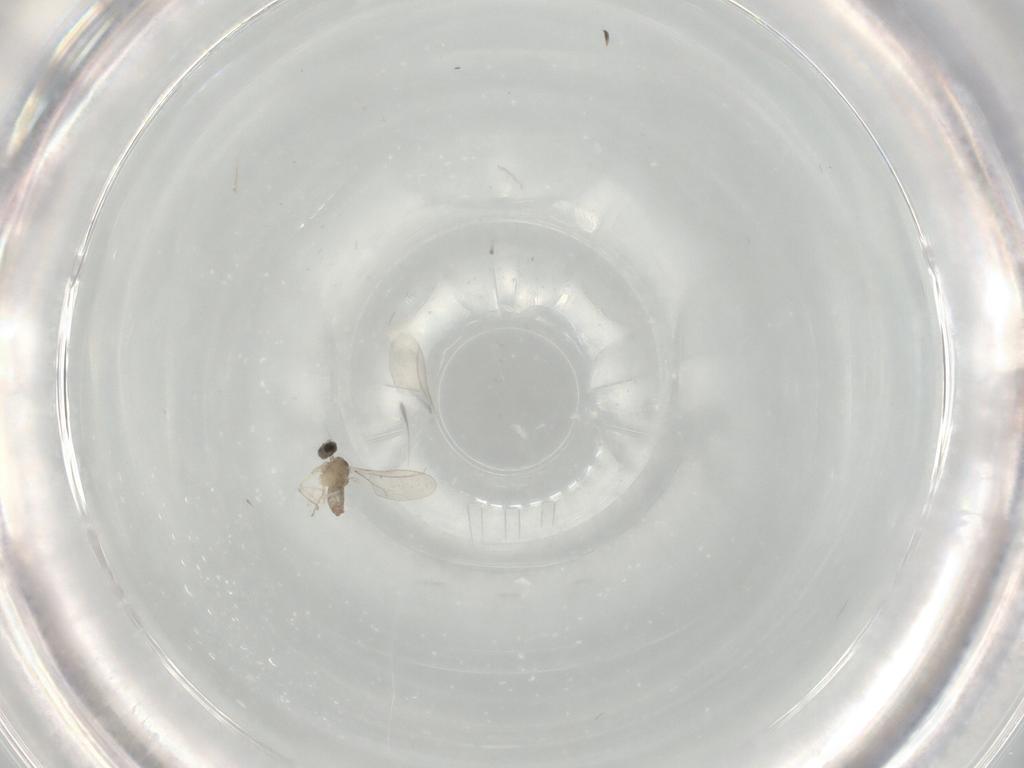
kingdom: Animalia
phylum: Arthropoda
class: Insecta
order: Diptera
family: Cecidomyiidae
